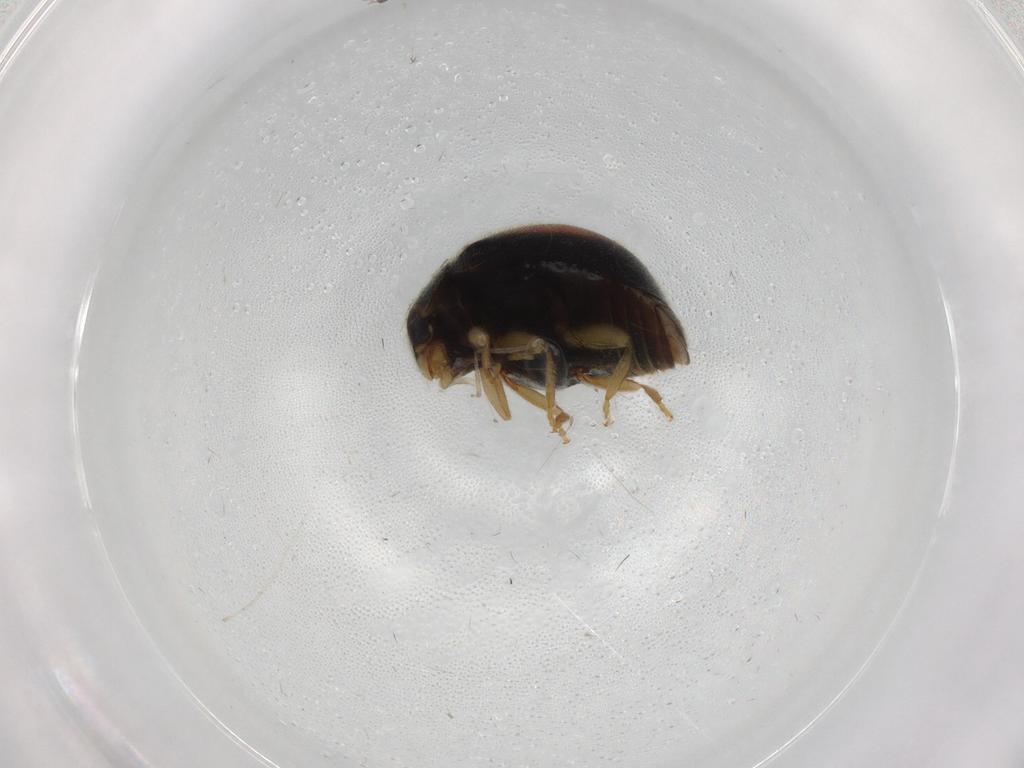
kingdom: Animalia
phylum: Arthropoda
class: Insecta
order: Coleoptera
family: Coccinellidae
